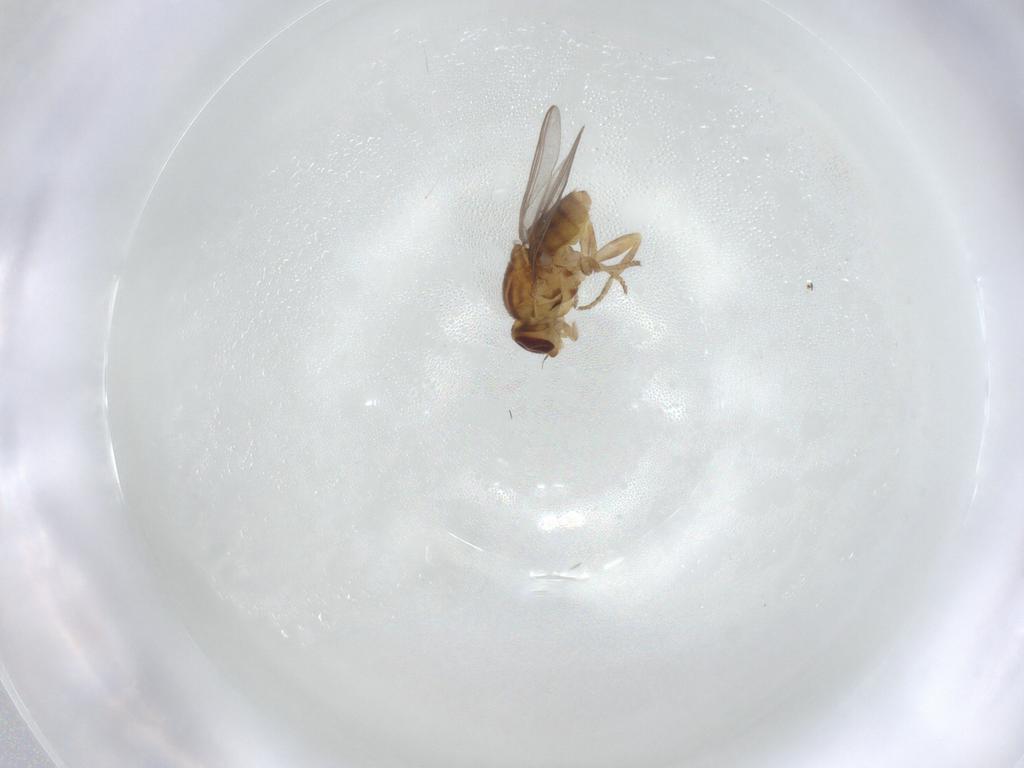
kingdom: Animalia
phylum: Arthropoda
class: Insecta
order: Diptera
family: Chloropidae
